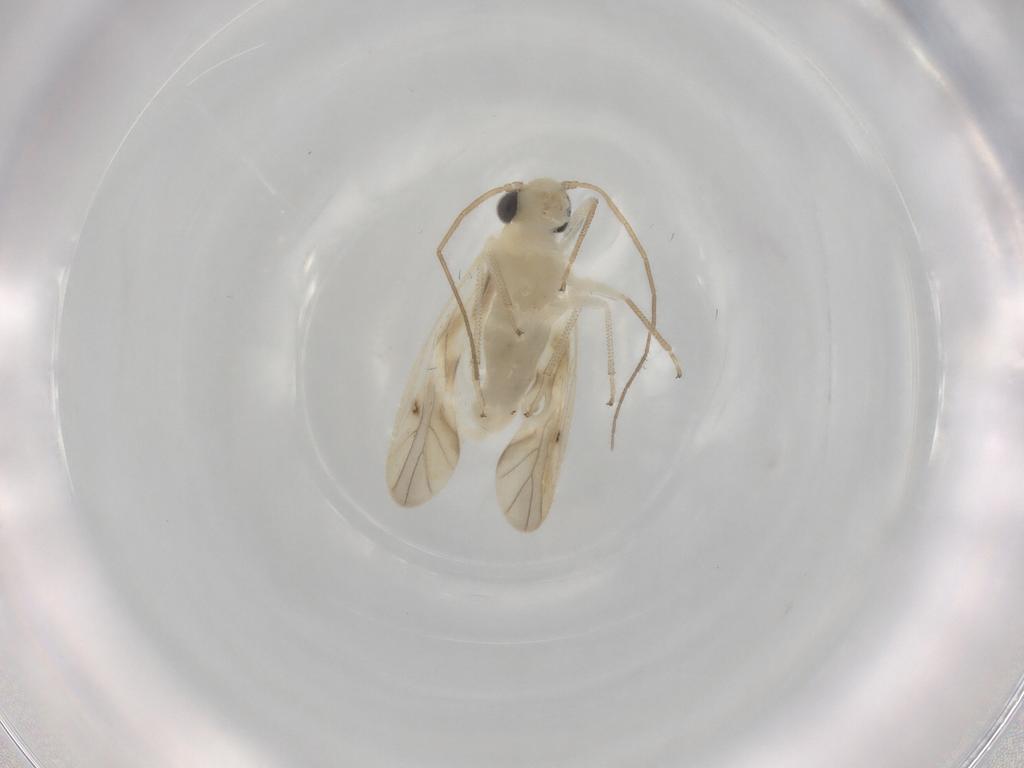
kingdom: Animalia
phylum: Arthropoda
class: Insecta
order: Psocodea
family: Caeciliusidae
